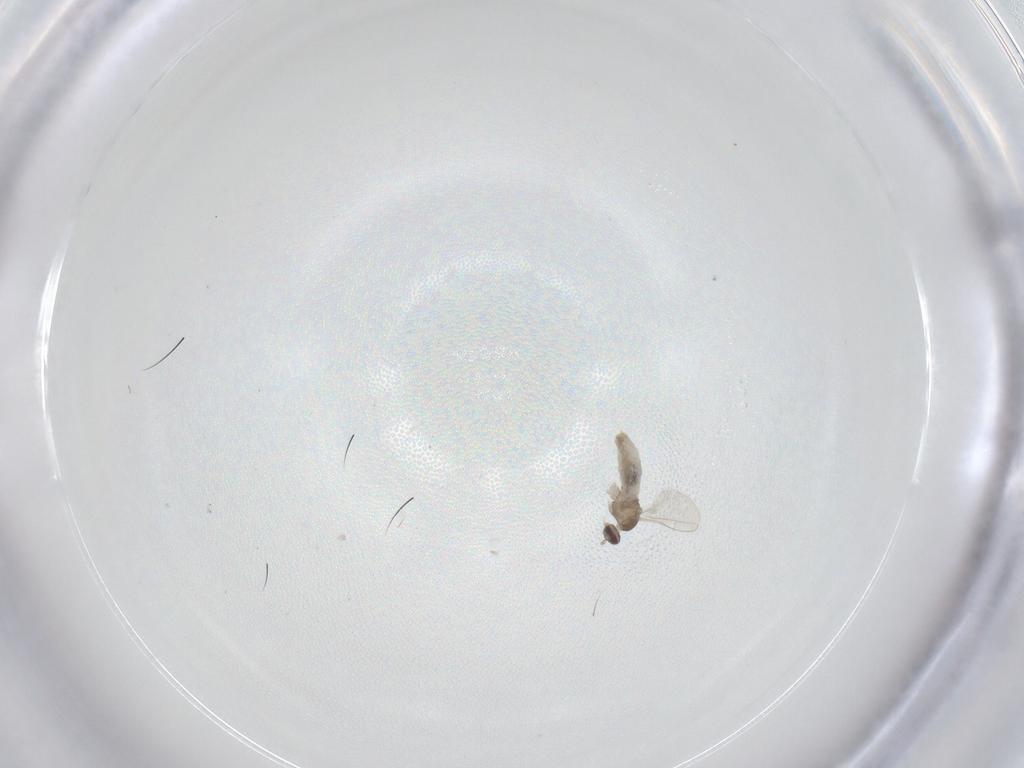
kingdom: Animalia
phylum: Arthropoda
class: Insecta
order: Diptera
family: Cecidomyiidae
